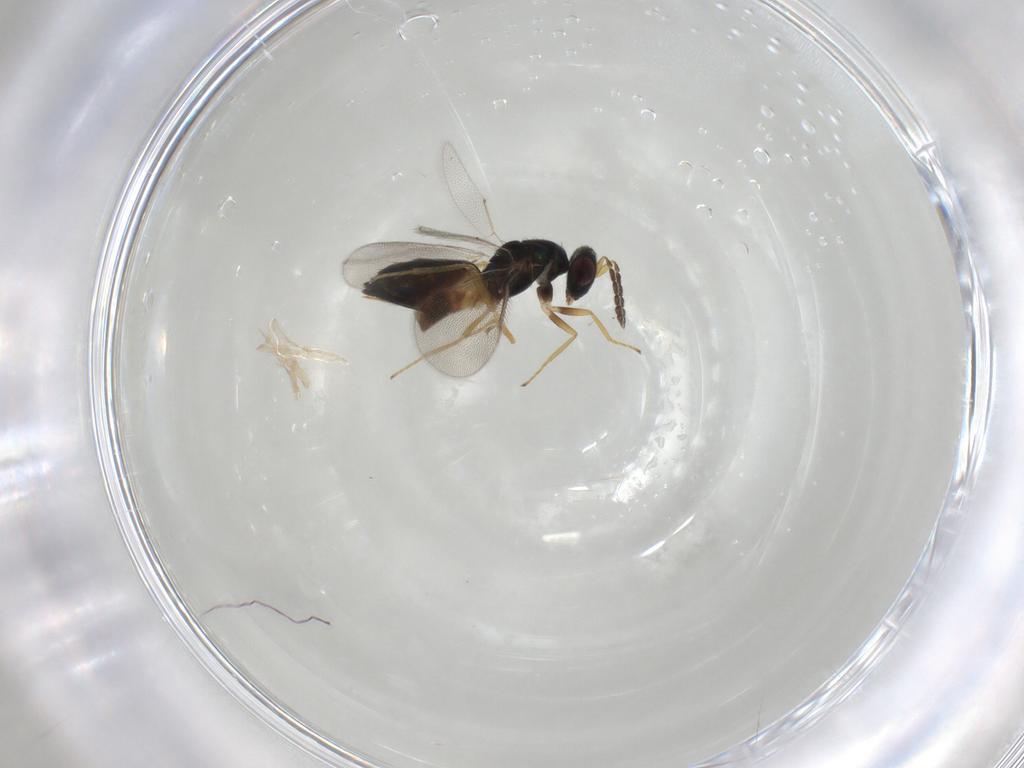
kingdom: Animalia
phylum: Arthropoda
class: Insecta
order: Hymenoptera
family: Eulophidae
